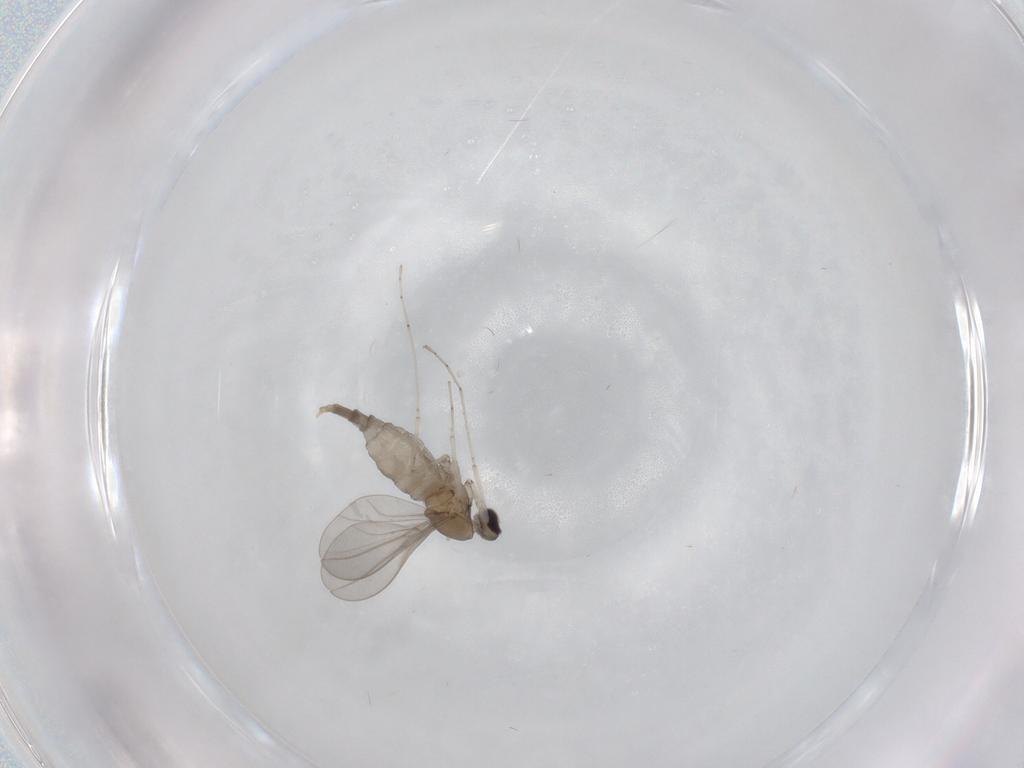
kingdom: Animalia
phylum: Arthropoda
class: Insecta
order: Diptera
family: Cecidomyiidae
